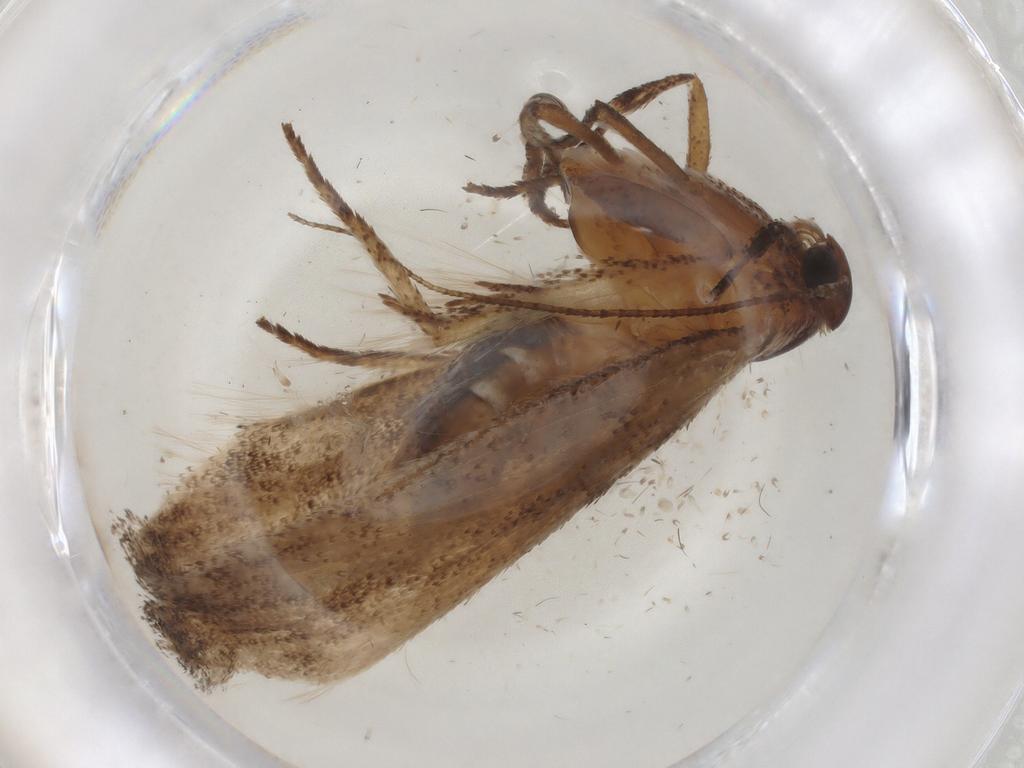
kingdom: Animalia
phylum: Arthropoda
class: Insecta
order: Lepidoptera
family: Cosmopterigidae
